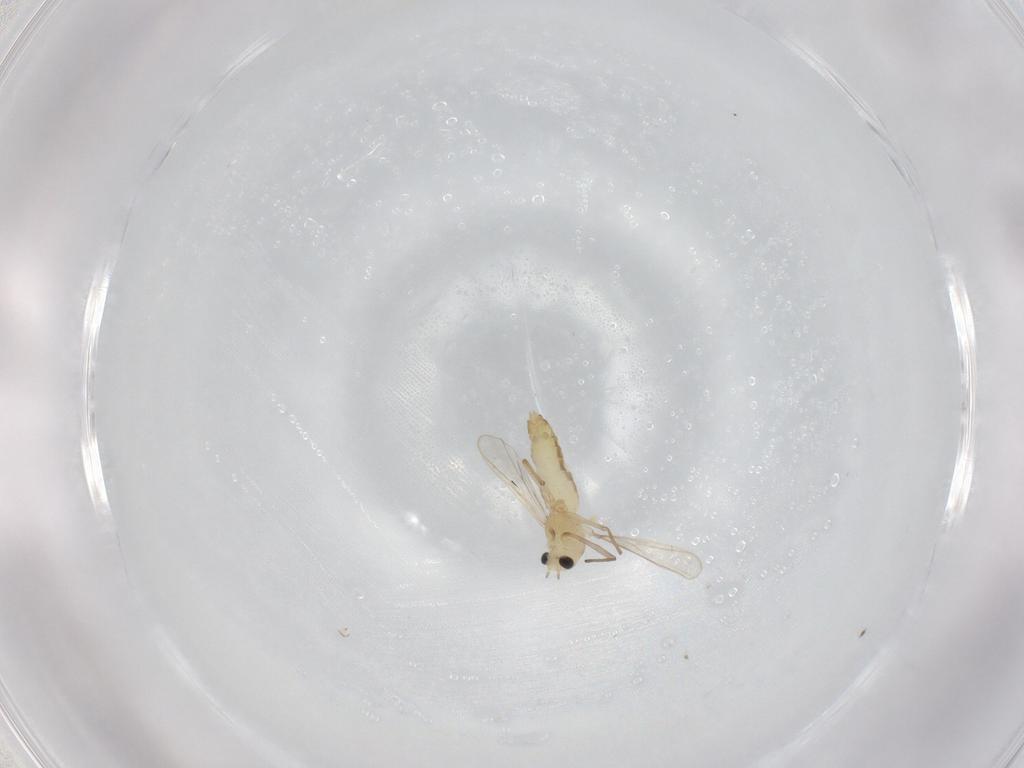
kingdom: Animalia
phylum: Arthropoda
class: Insecta
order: Diptera
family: Chironomidae
